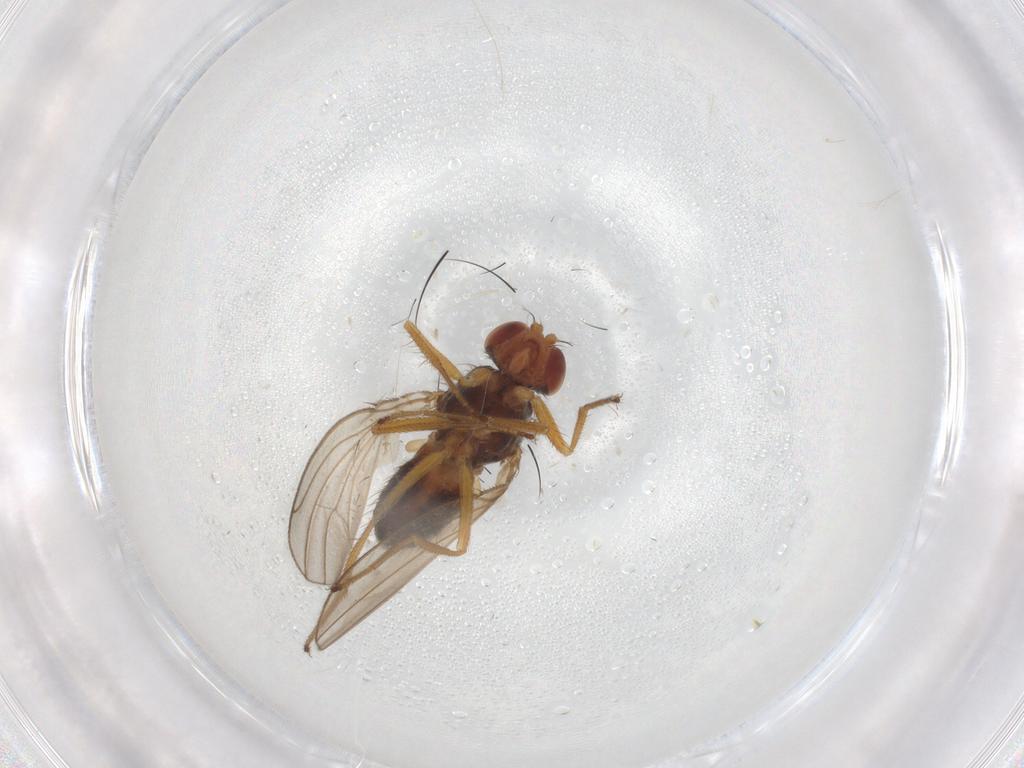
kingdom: Animalia
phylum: Arthropoda
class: Insecta
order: Diptera
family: Drosophilidae
